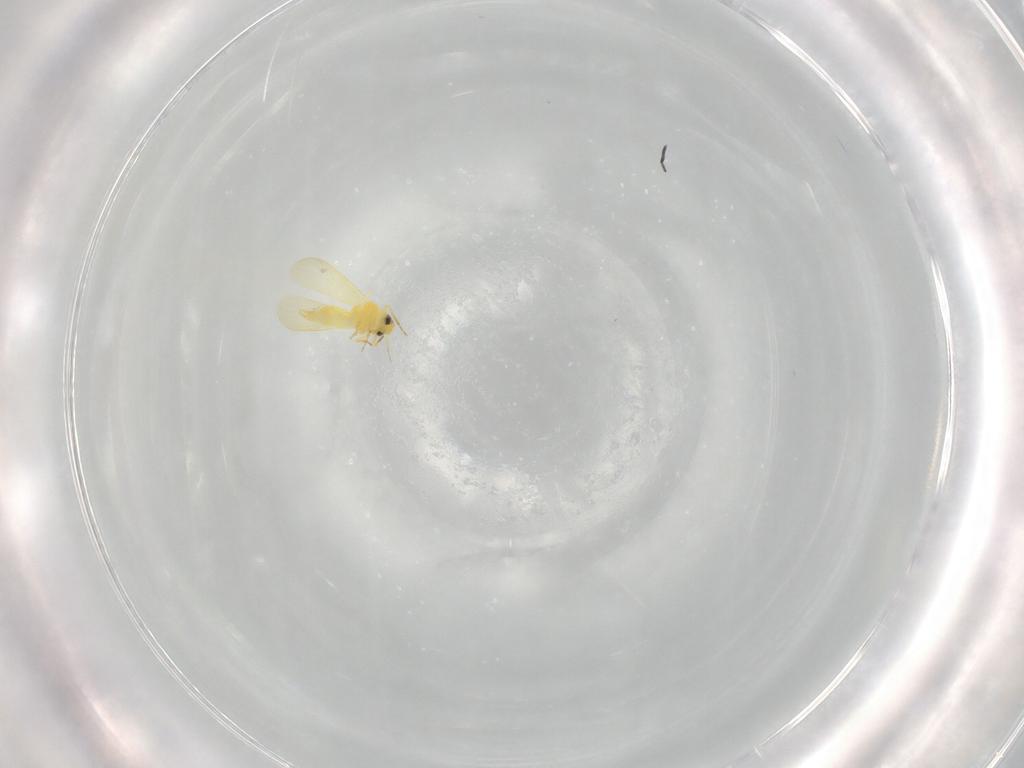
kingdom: Animalia
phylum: Arthropoda
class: Insecta
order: Hemiptera
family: Aleyrodidae
